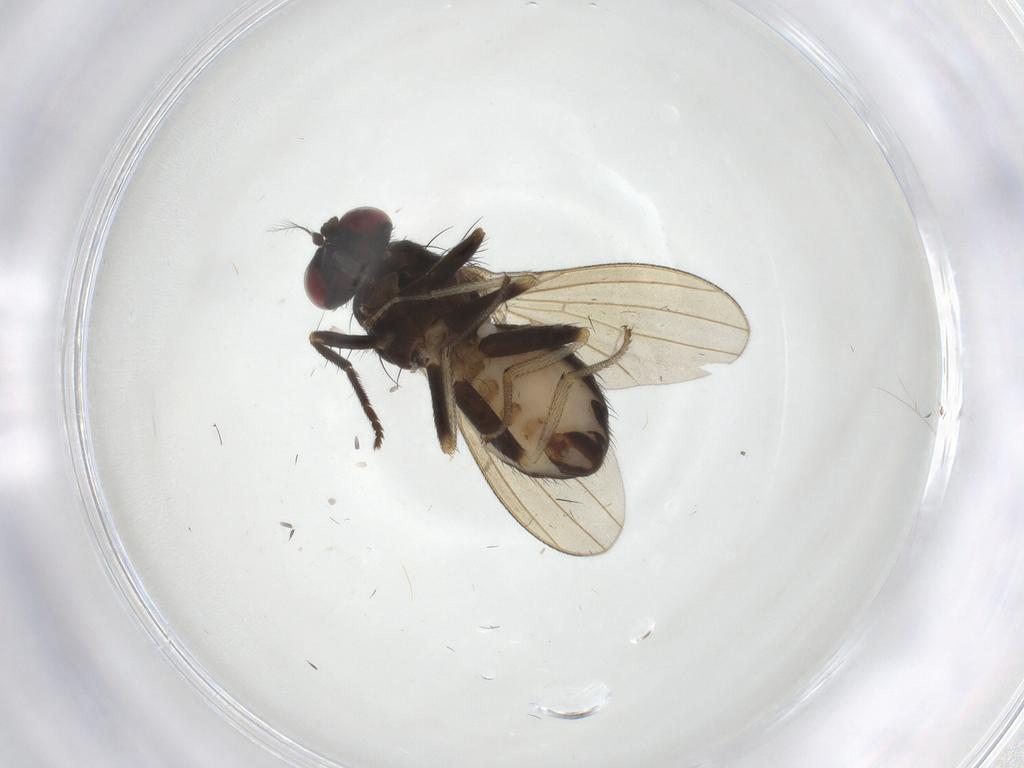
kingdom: Animalia
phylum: Arthropoda
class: Insecta
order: Diptera
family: Lauxaniidae
